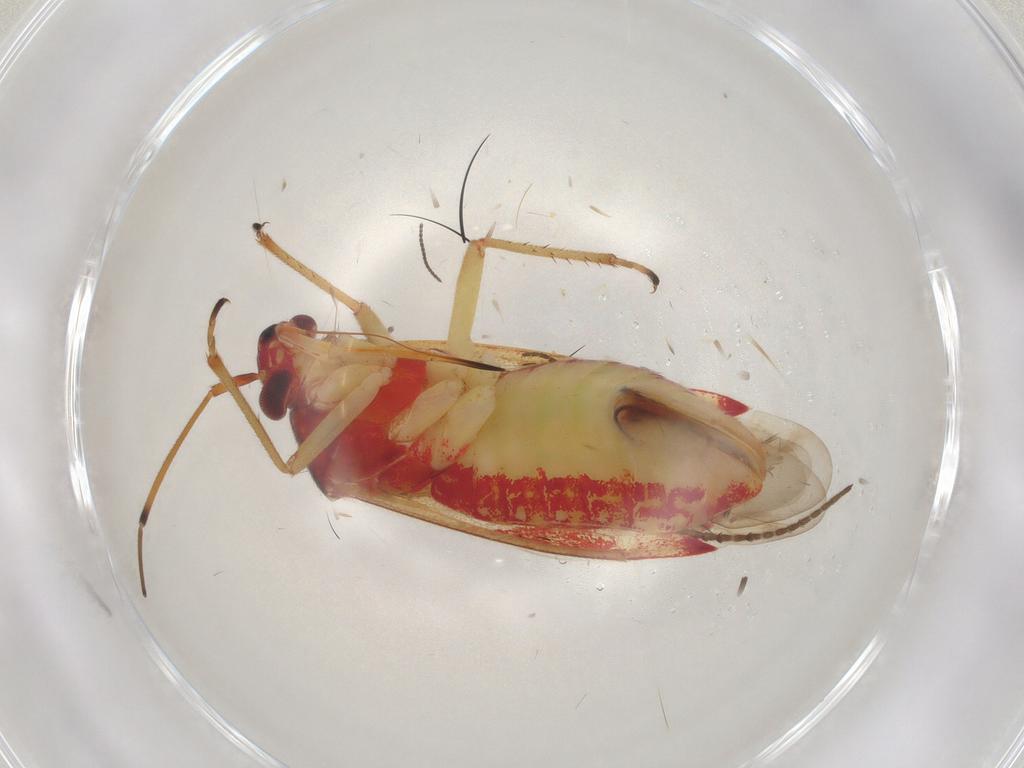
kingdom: Animalia
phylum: Arthropoda
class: Insecta
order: Hemiptera
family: Achilidae
